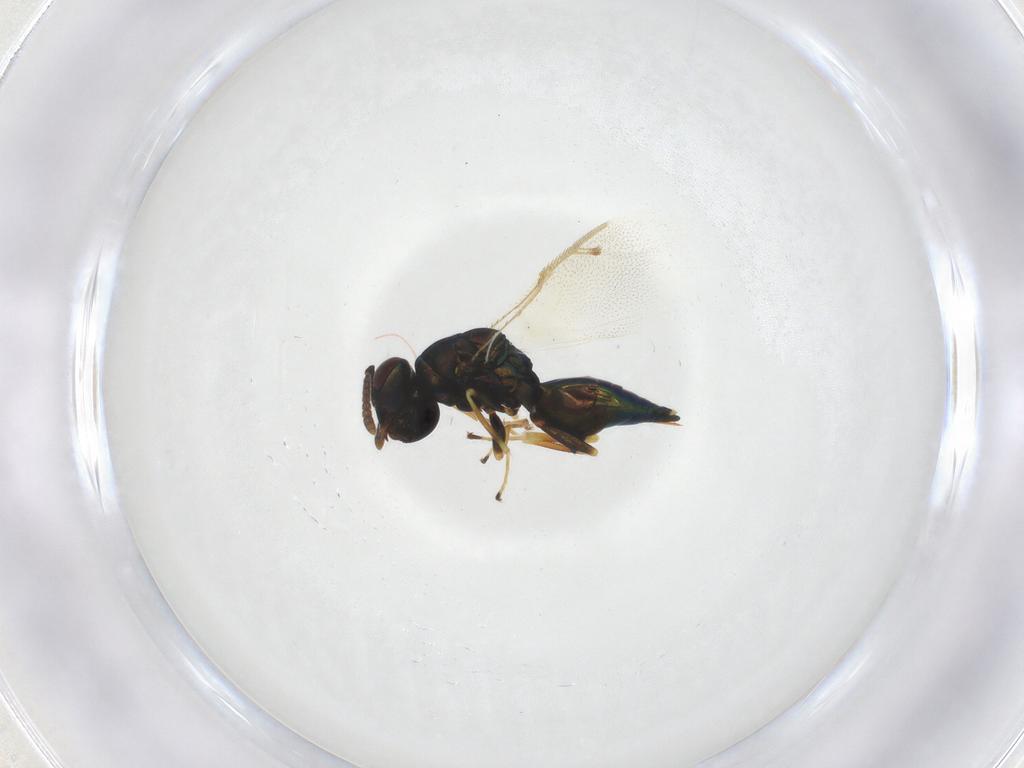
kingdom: Animalia
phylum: Arthropoda
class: Insecta
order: Hymenoptera
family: Pteromalidae
